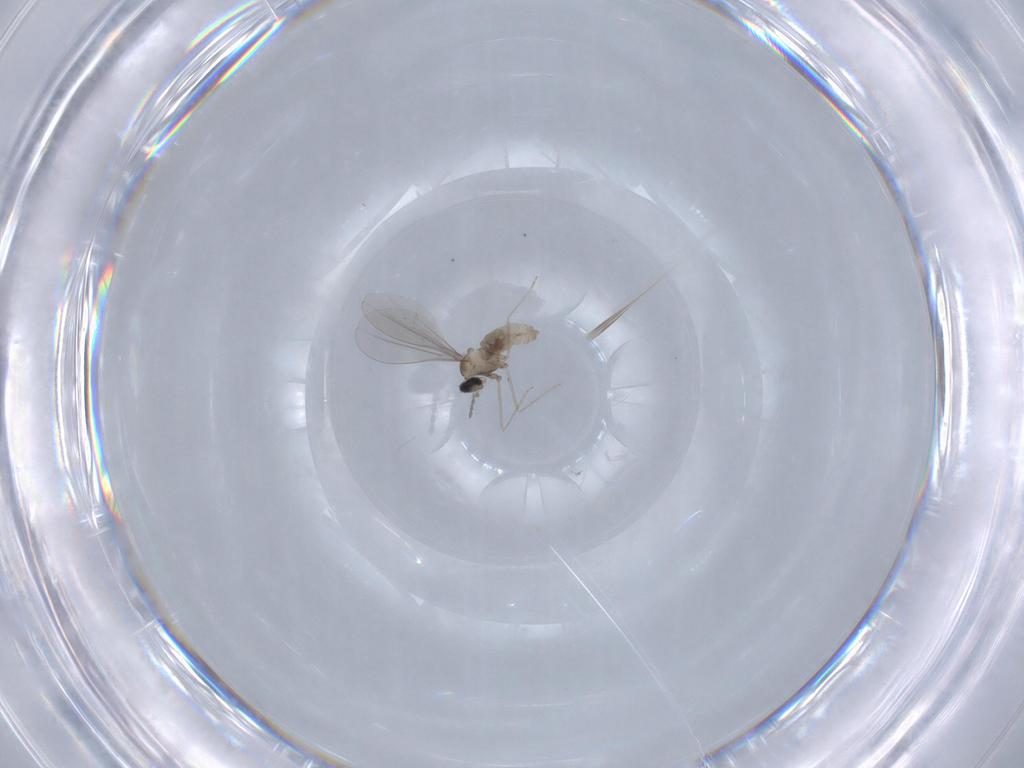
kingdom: Animalia
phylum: Arthropoda
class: Insecta
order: Diptera
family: Cecidomyiidae
